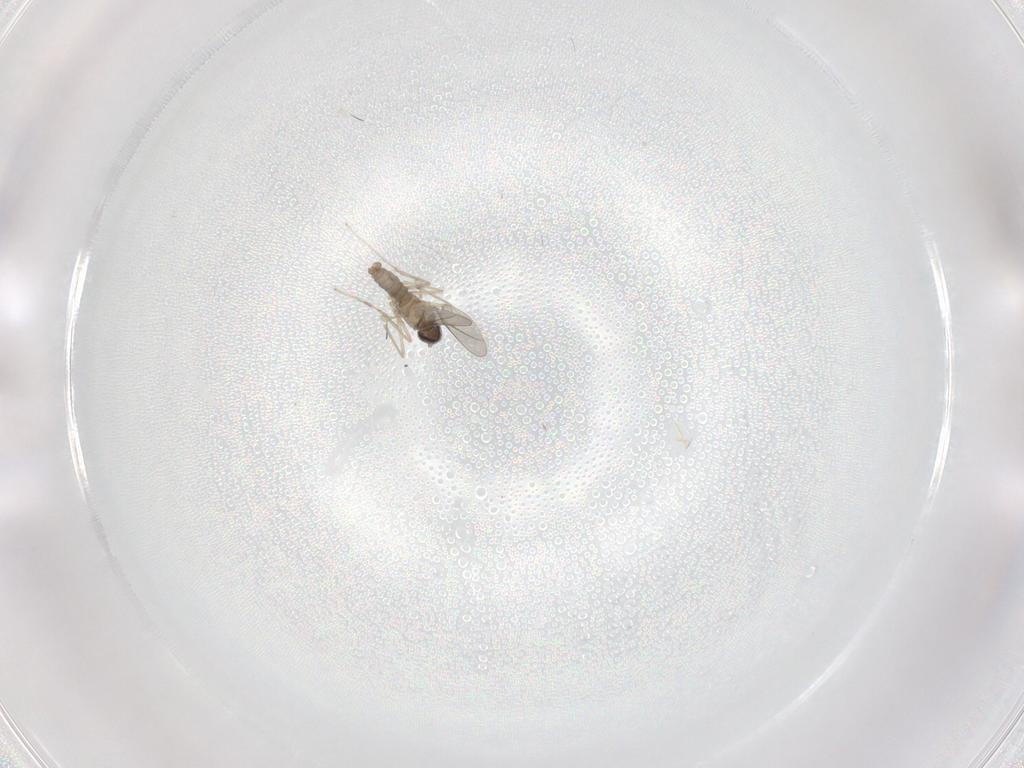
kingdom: Animalia
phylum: Arthropoda
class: Insecta
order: Diptera
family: Cecidomyiidae
